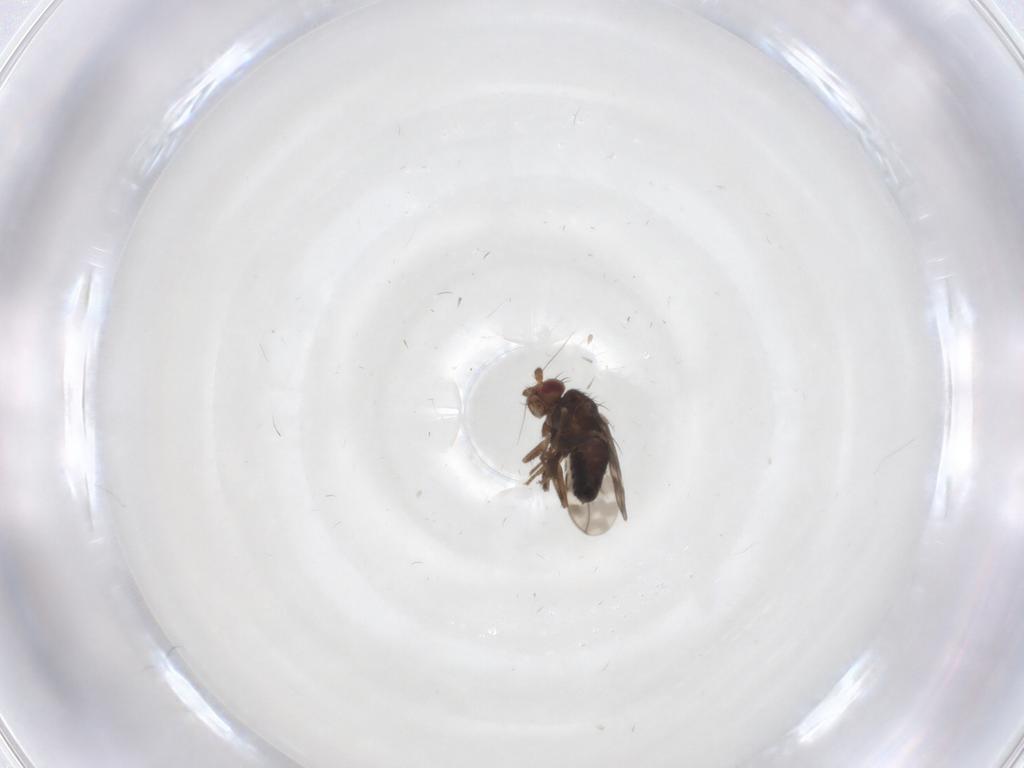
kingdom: Animalia
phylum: Arthropoda
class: Insecta
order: Diptera
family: Sphaeroceridae
